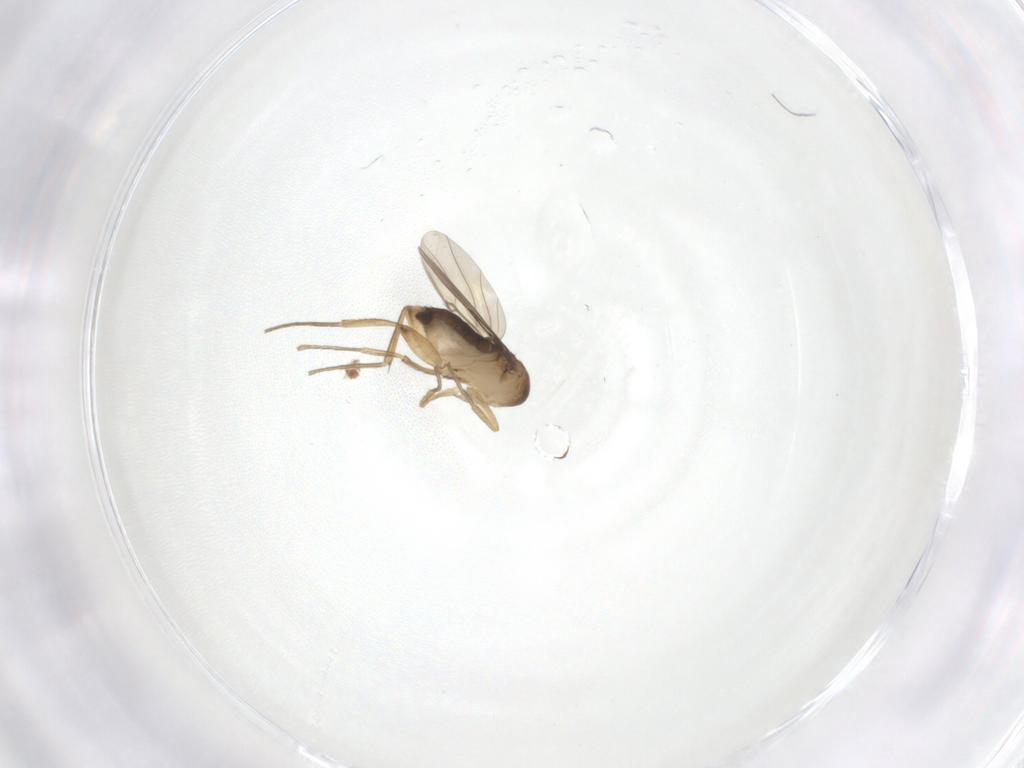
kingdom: Animalia
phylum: Arthropoda
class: Insecta
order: Diptera
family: Phoridae
